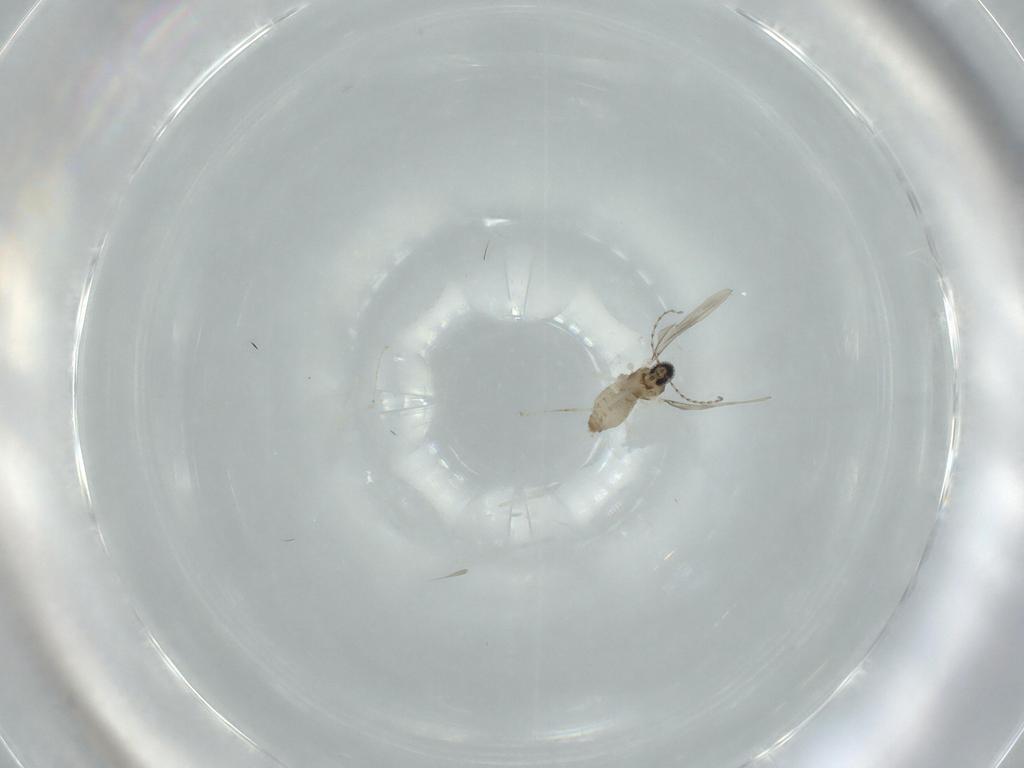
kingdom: Animalia
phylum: Arthropoda
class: Insecta
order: Diptera
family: Cecidomyiidae
